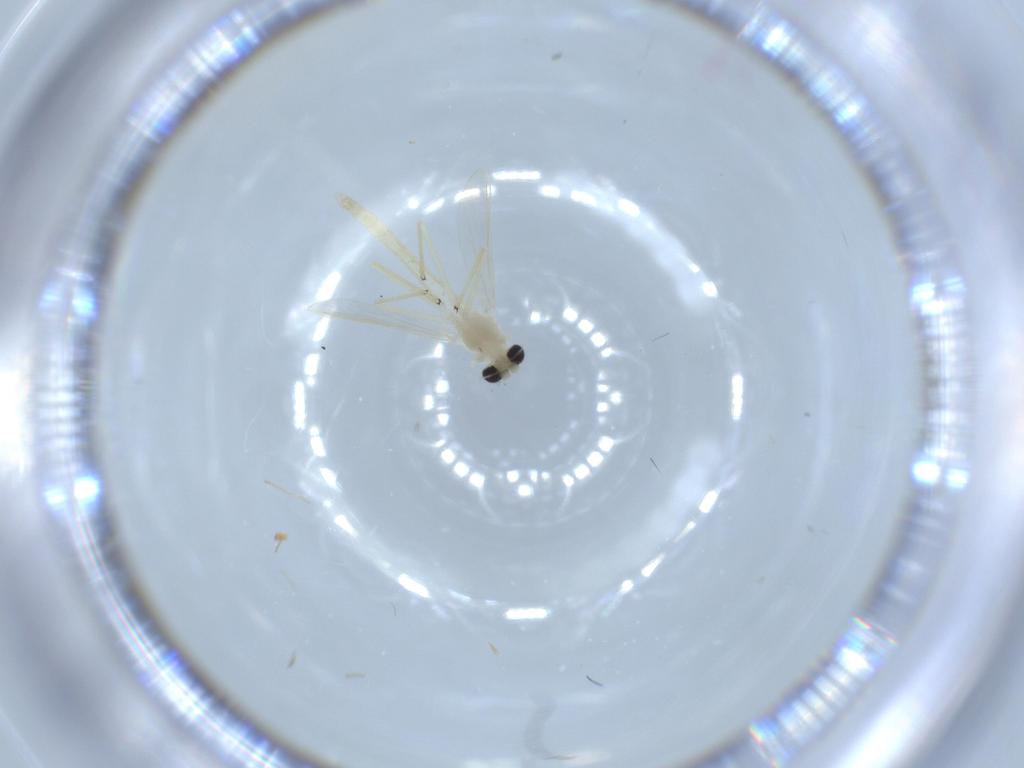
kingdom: Animalia
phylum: Arthropoda
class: Insecta
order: Diptera
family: Chironomidae
